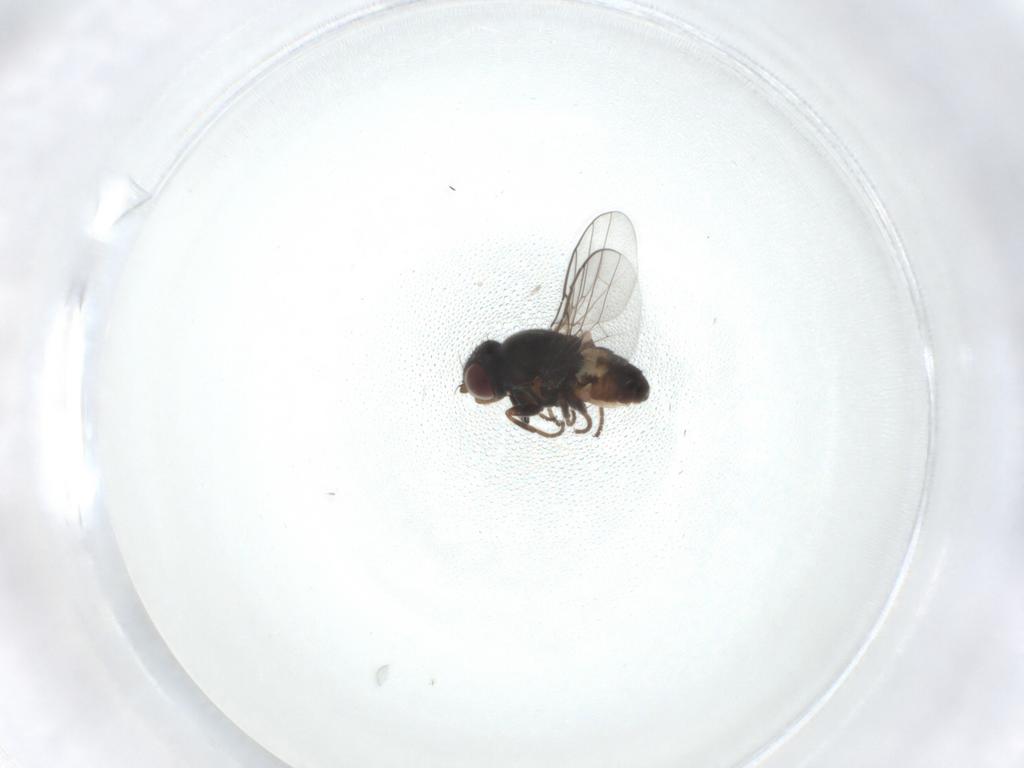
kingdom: Animalia
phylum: Arthropoda
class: Insecta
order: Diptera
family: Chloropidae
